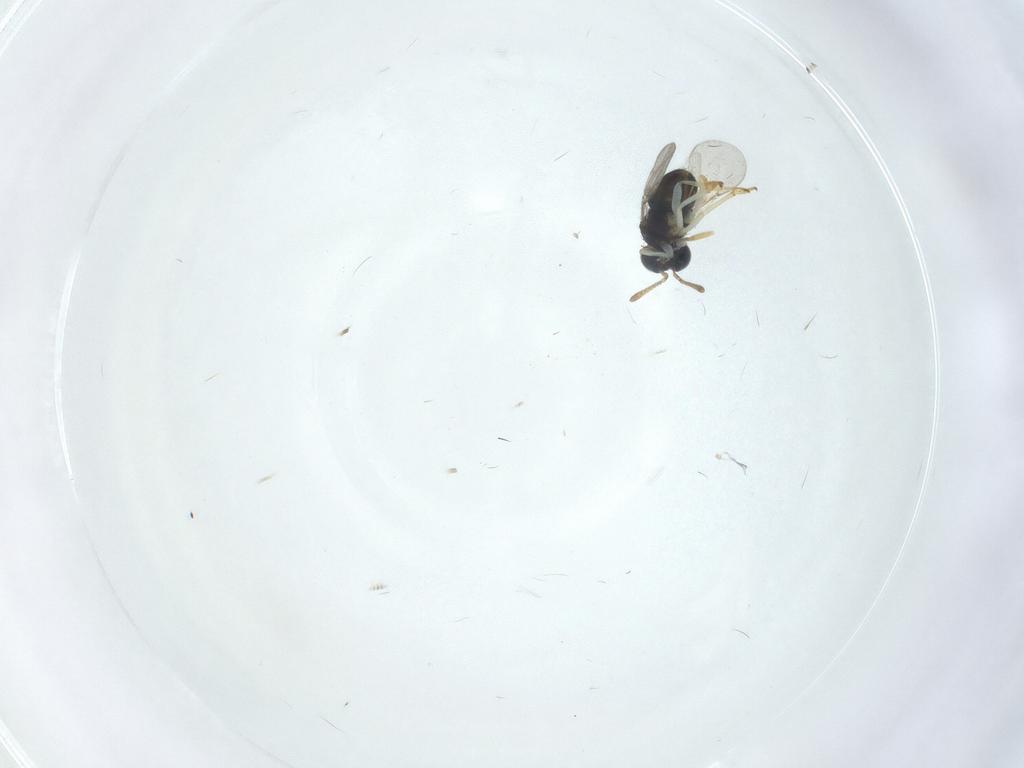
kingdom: Animalia
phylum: Arthropoda
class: Insecta
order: Hymenoptera
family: Encyrtidae
